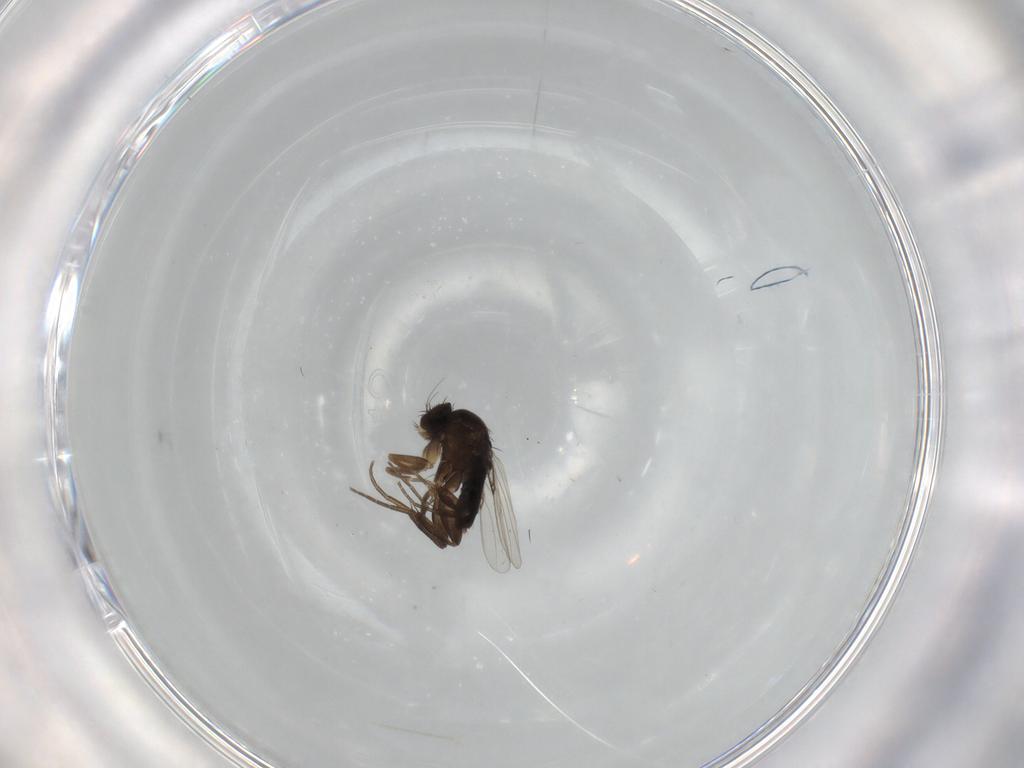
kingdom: Animalia
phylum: Arthropoda
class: Insecta
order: Diptera
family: Phoridae
